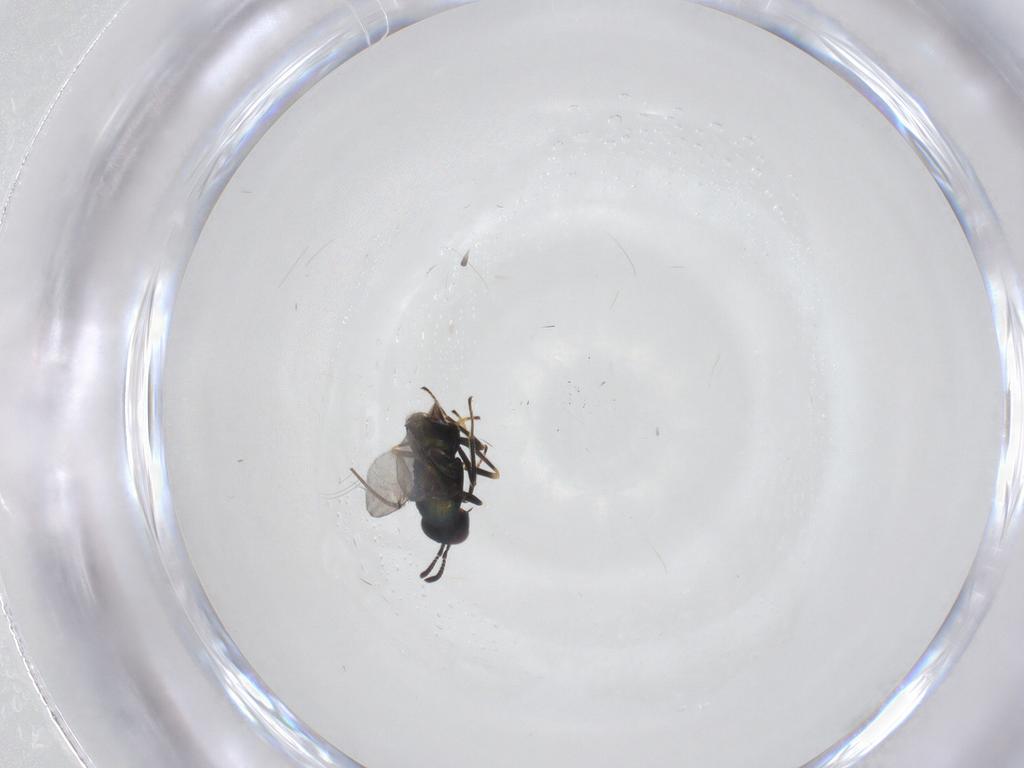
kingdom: Animalia
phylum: Arthropoda
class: Insecta
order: Hymenoptera
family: Encyrtidae
